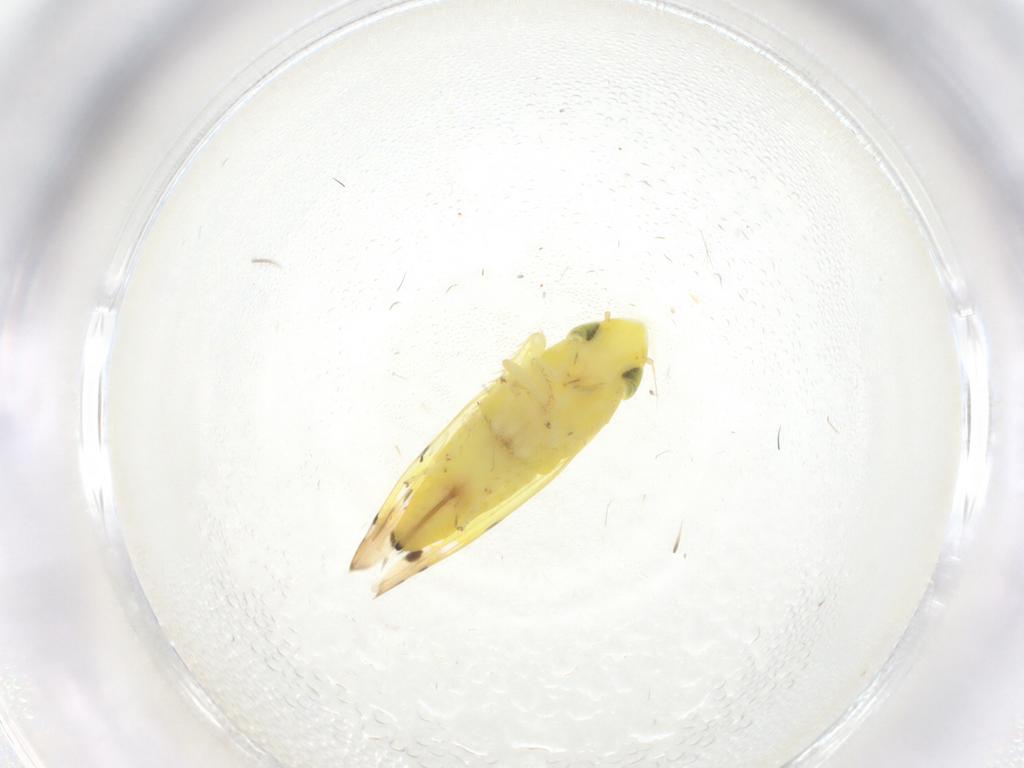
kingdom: Animalia
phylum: Arthropoda
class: Insecta
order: Hemiptera
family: Cicadellidae
